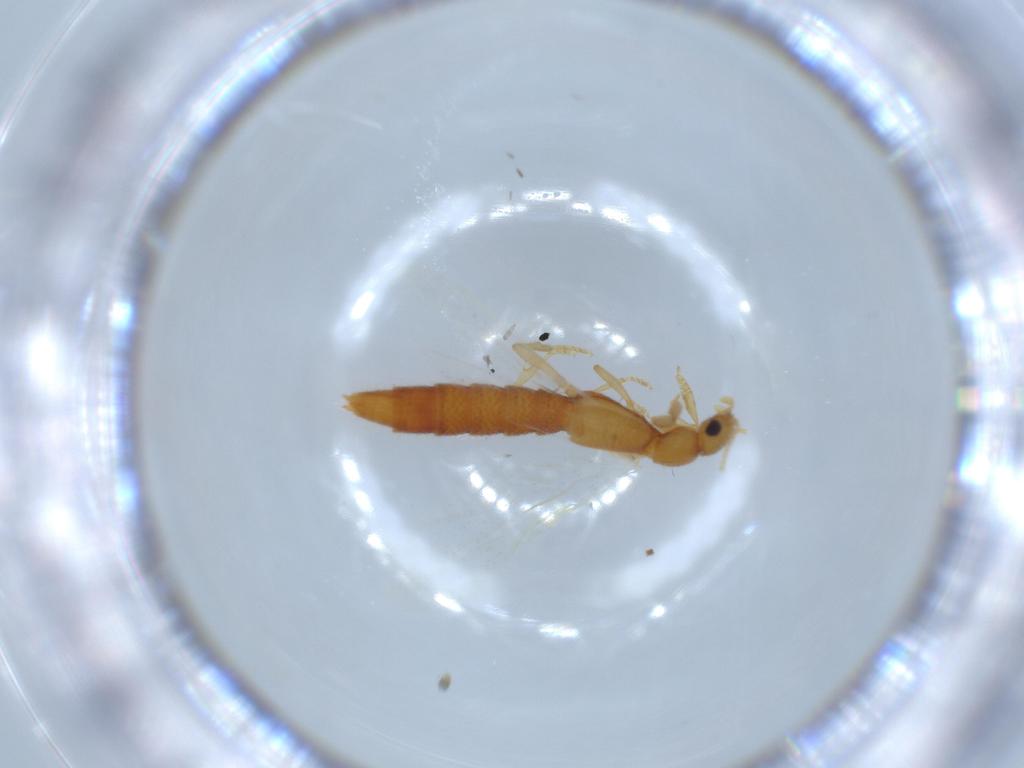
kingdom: Animalia
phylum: Arthropoda
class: Insecta
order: Coleoptera
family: Staphylinidae
